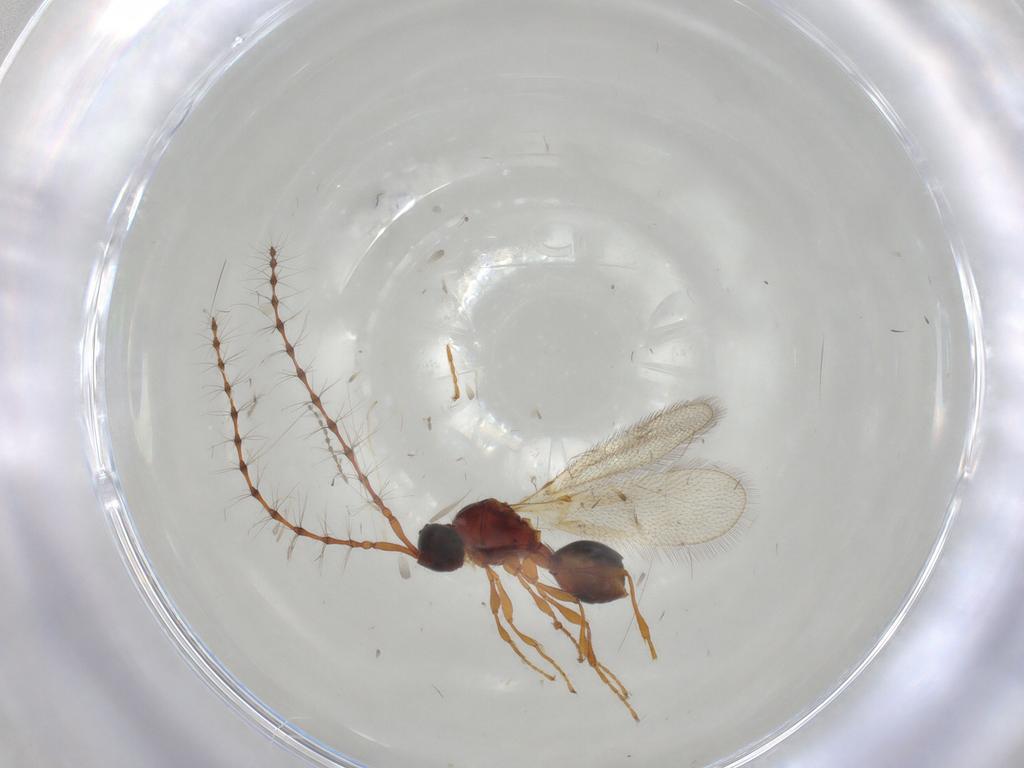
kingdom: Animalia
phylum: Arthropoda
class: Insecta
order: Hymenoptera
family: Diapriidae
